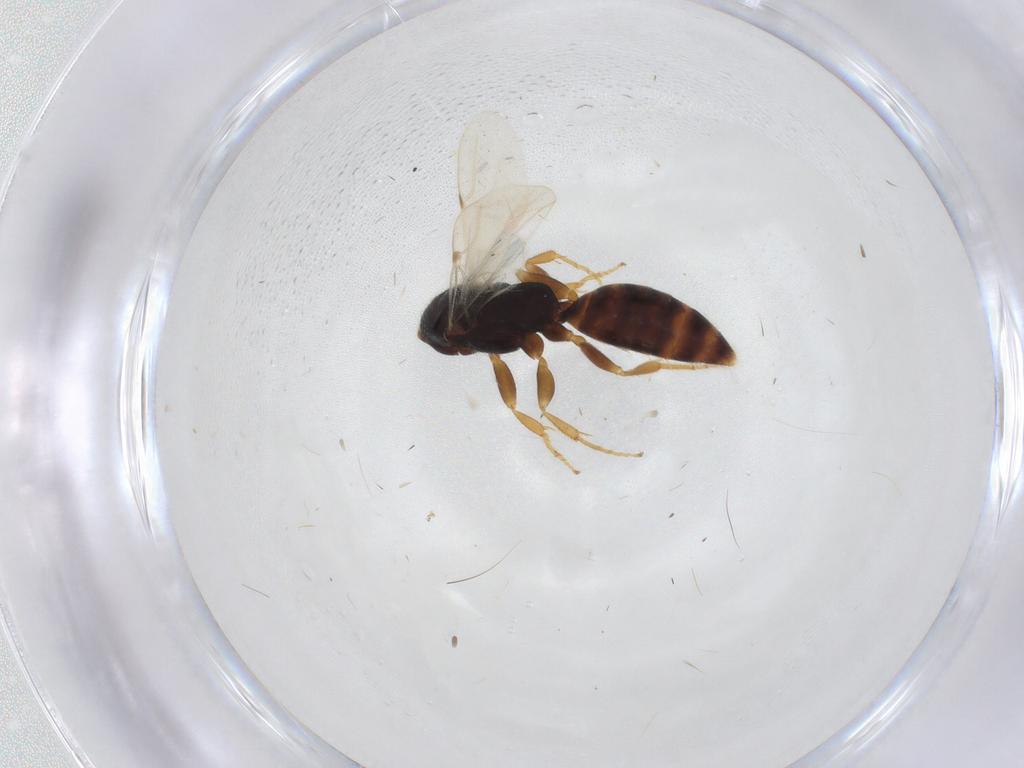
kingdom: Animalia
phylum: Arthropoda
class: Insecta
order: Hymenoptera
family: Bethylidae
